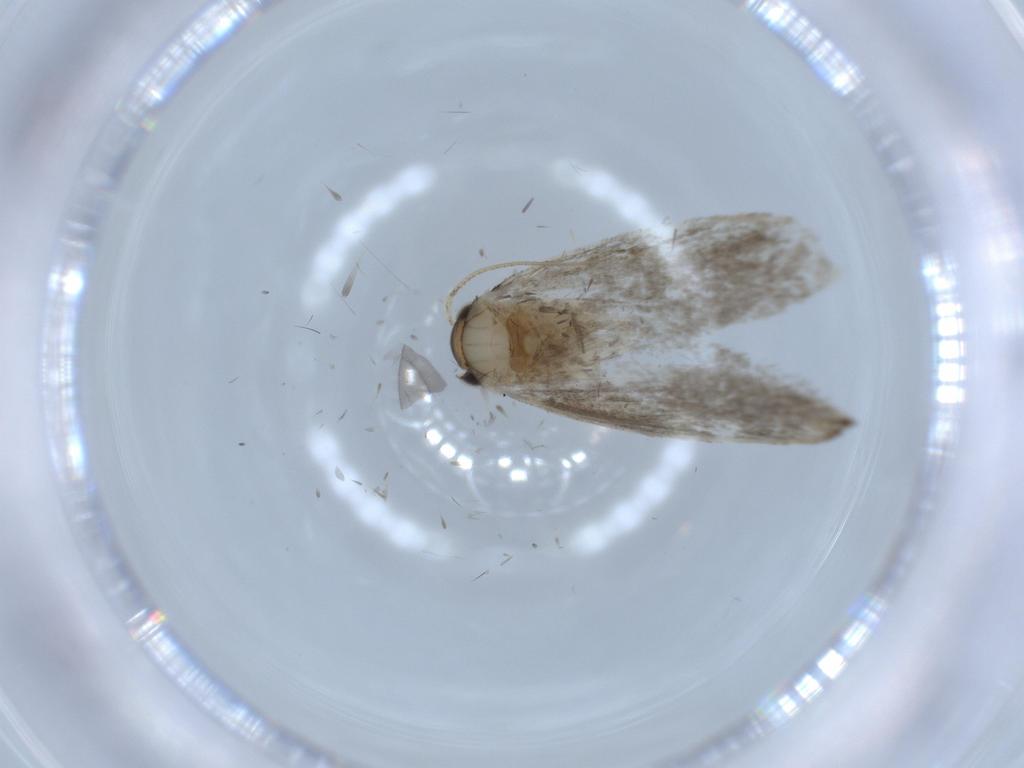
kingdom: Animalia
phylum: Arthropoda
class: Insecta
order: Lepidoptera
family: Tineidae
